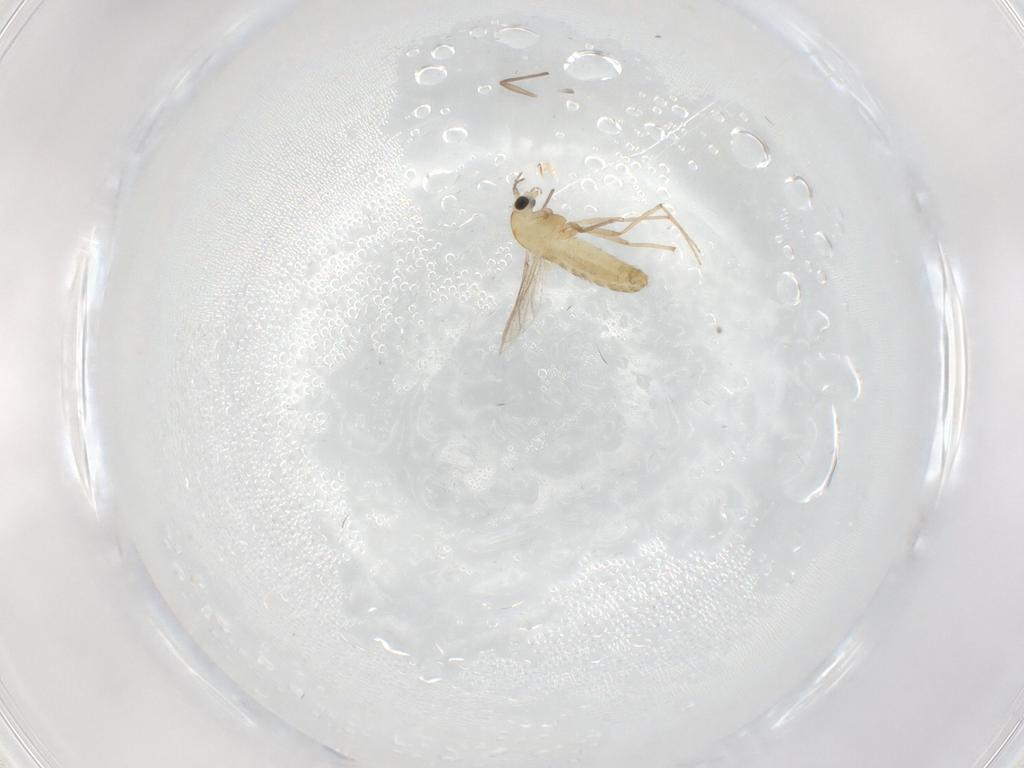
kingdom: Animalia
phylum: Arthropoda
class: Insecta
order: Diptera
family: Chironomidae
